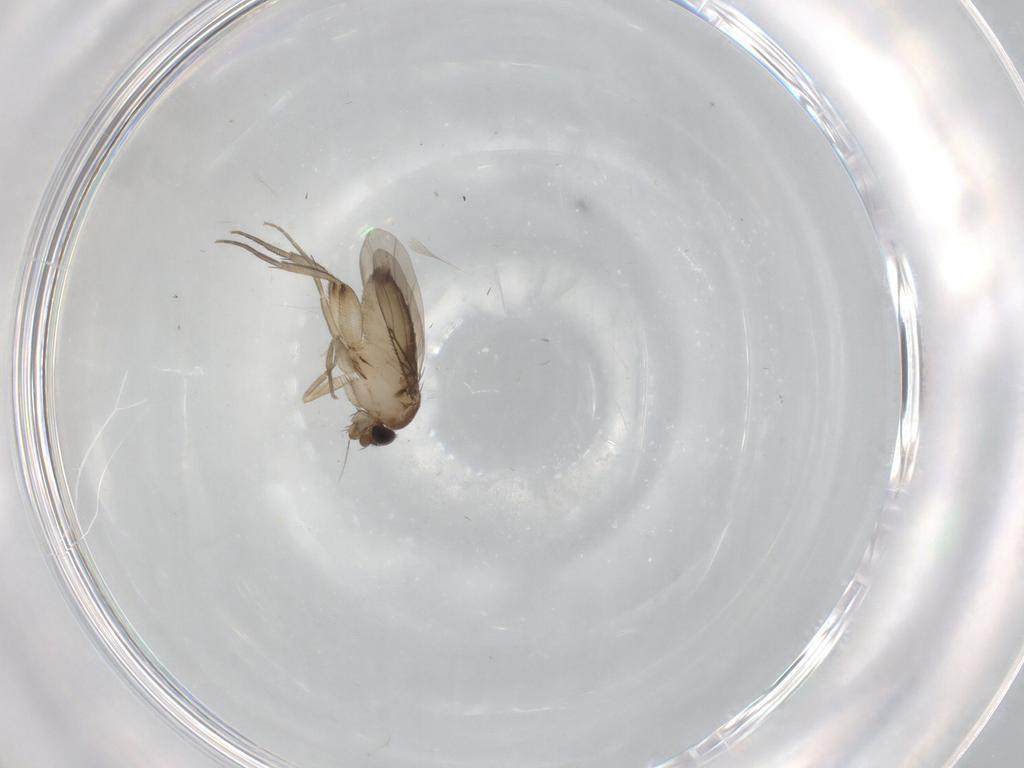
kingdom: Animalia
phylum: Arthropoda
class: Insecta
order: Diptera
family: Phoridae
